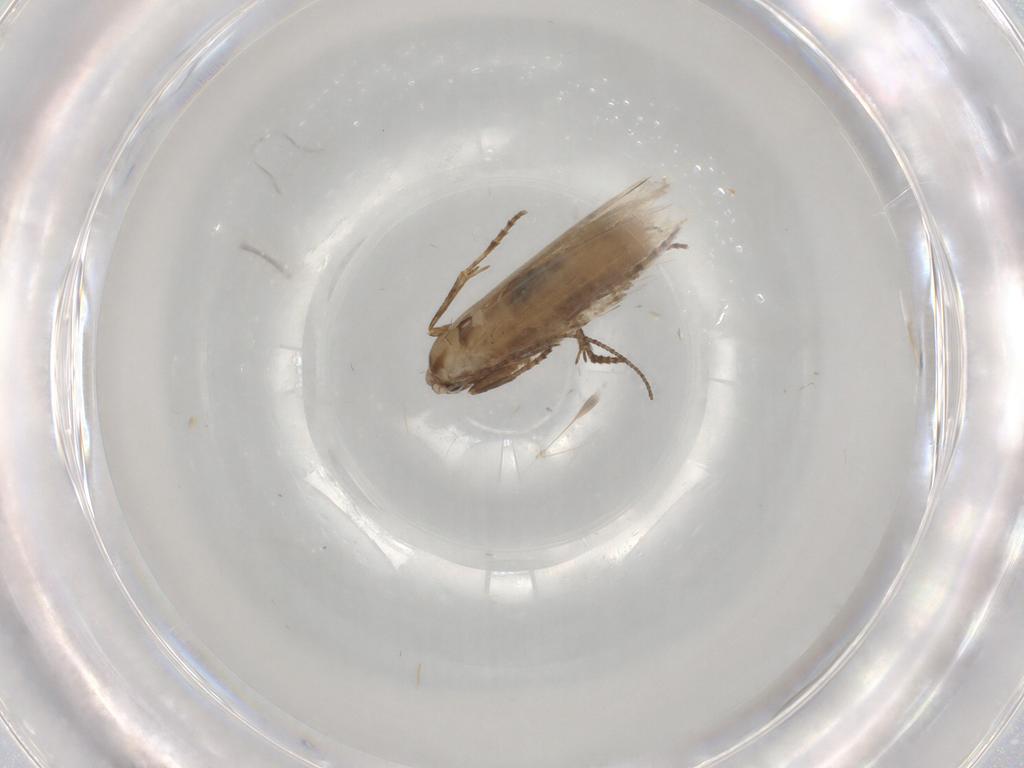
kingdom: Animalia
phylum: Arthropoda
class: Insecta
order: Lepidoptera
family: Bucculatricidae
